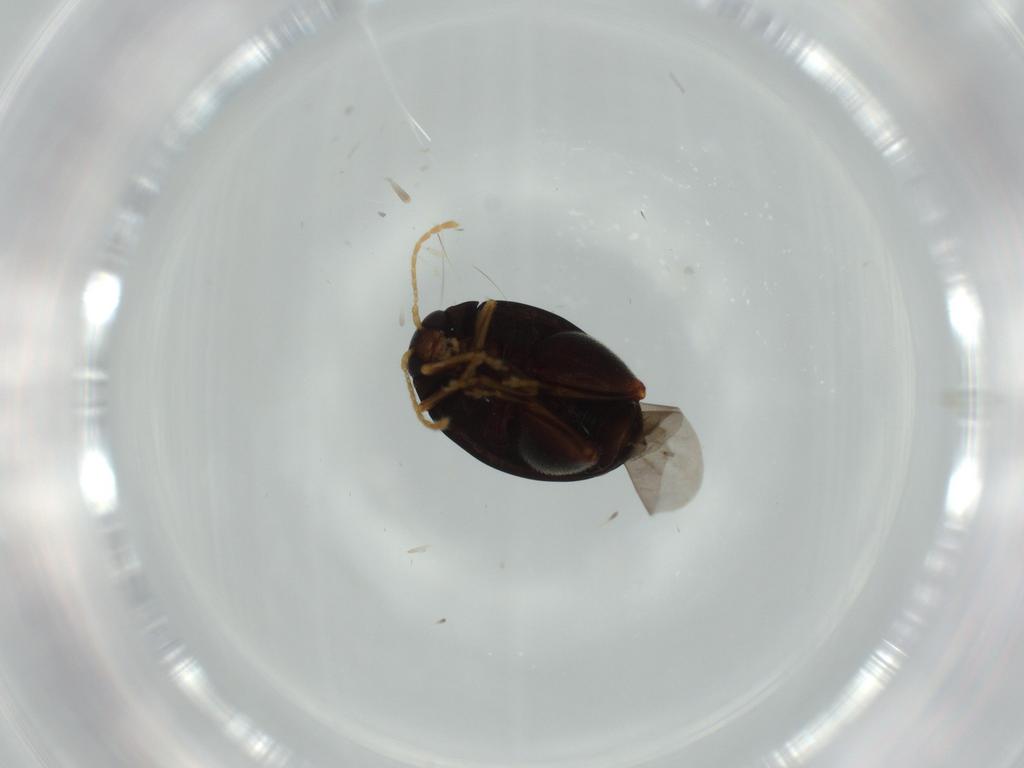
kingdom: Animalia
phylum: Arthropoda
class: Insecta
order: Coleoptera
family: Chrysomelidae
